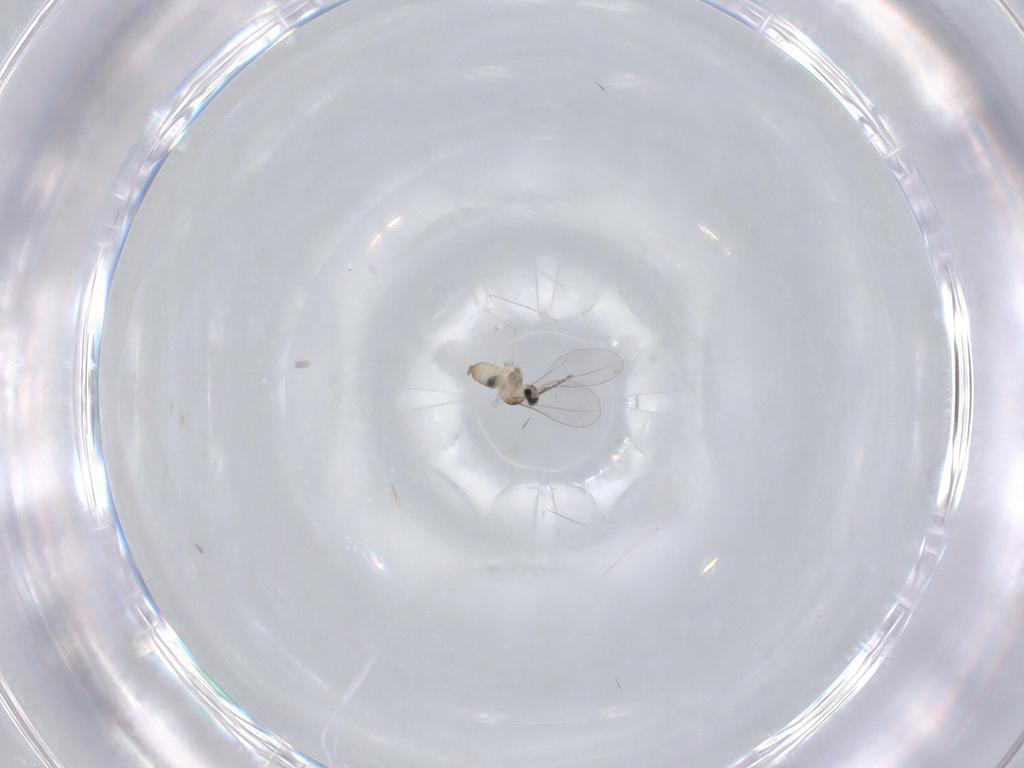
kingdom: Animalia
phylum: Arthropoda
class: Insecta
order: Diptera
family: Cecidomyiidae
